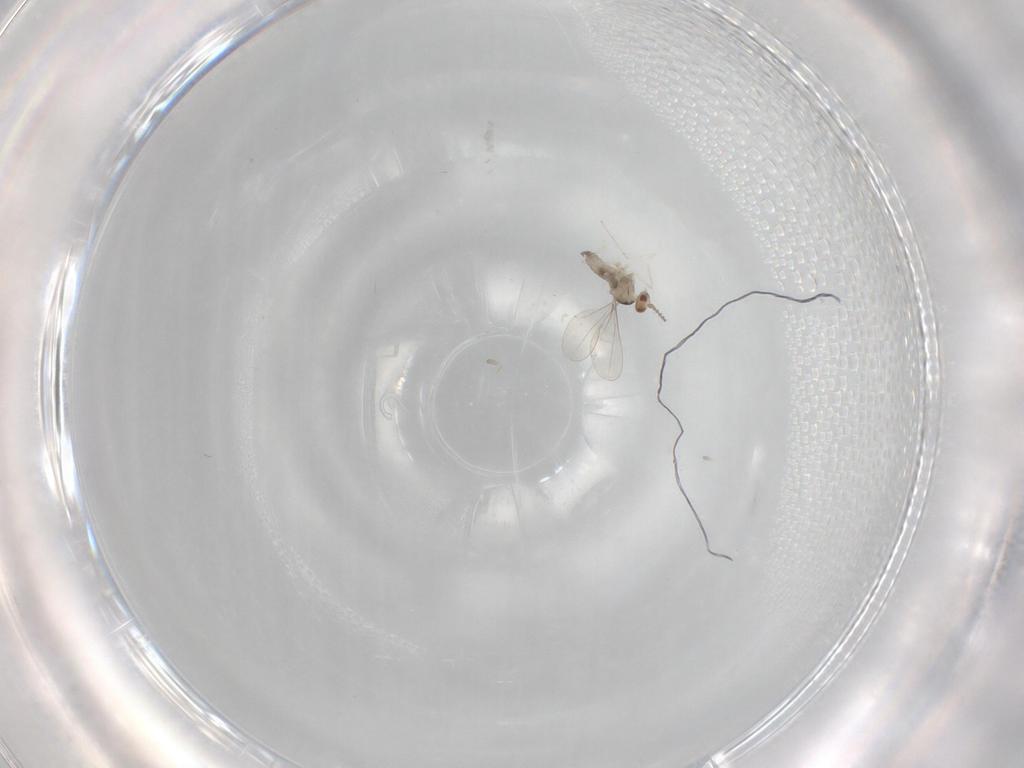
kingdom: Animalia
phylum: Arthropoda
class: Insecta
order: Diptera
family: Cecidomyiidae
